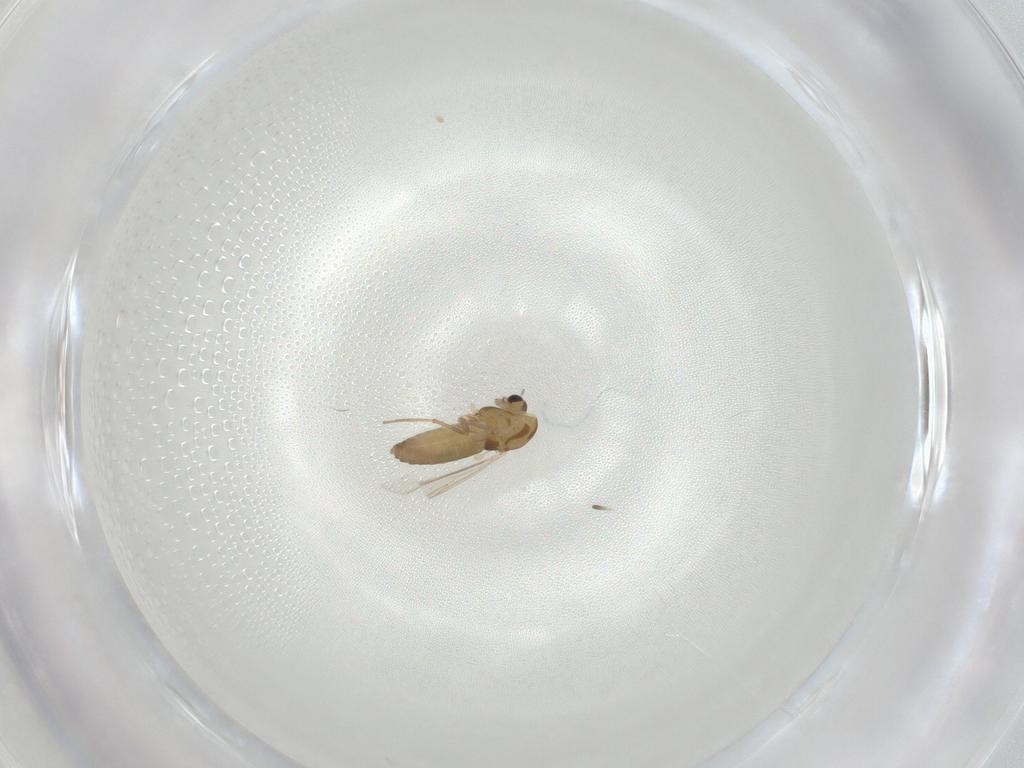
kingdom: Animalia
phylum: Arthropoda
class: Insecta
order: Diptera
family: Chironomidae
